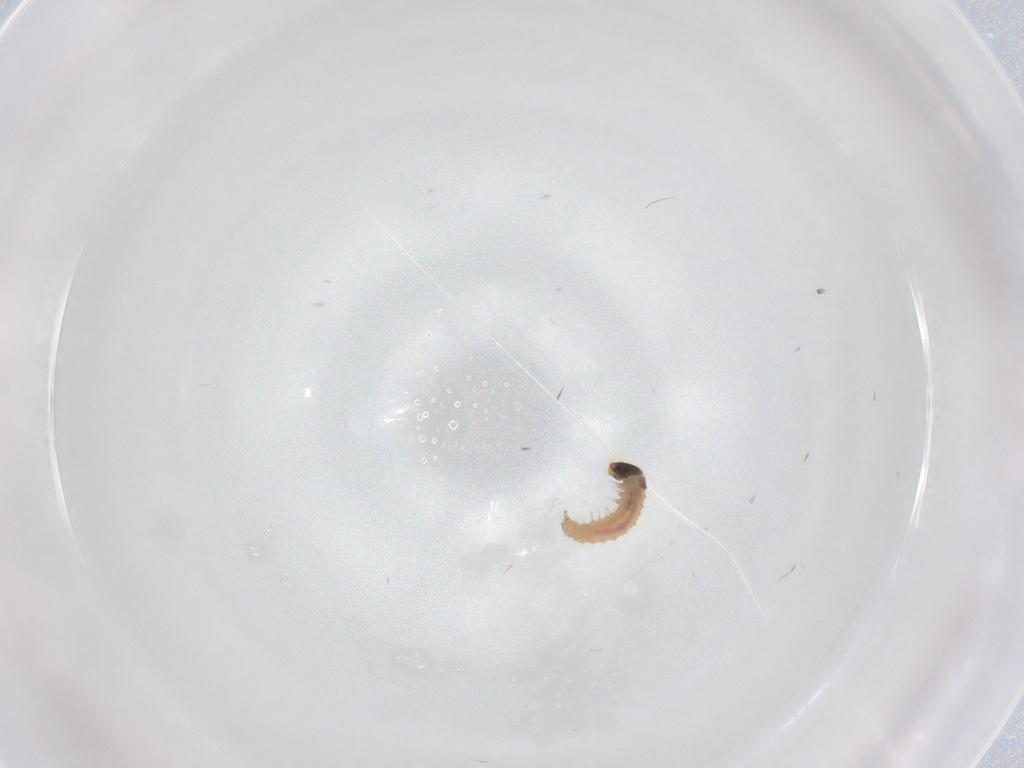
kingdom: Animalia
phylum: Arthropoda
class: Insecta
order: Lepidoptera
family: Crambidae
